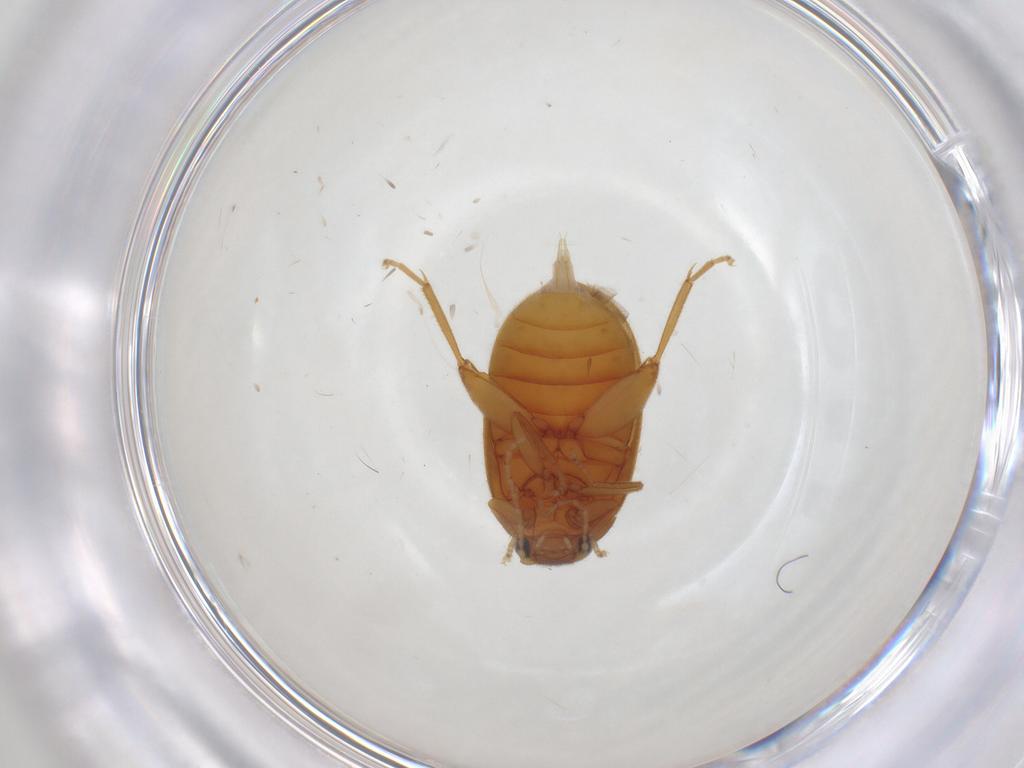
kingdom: Animalia
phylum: Arthropoda
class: Insecta
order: Coleoptera
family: Scirtidae
